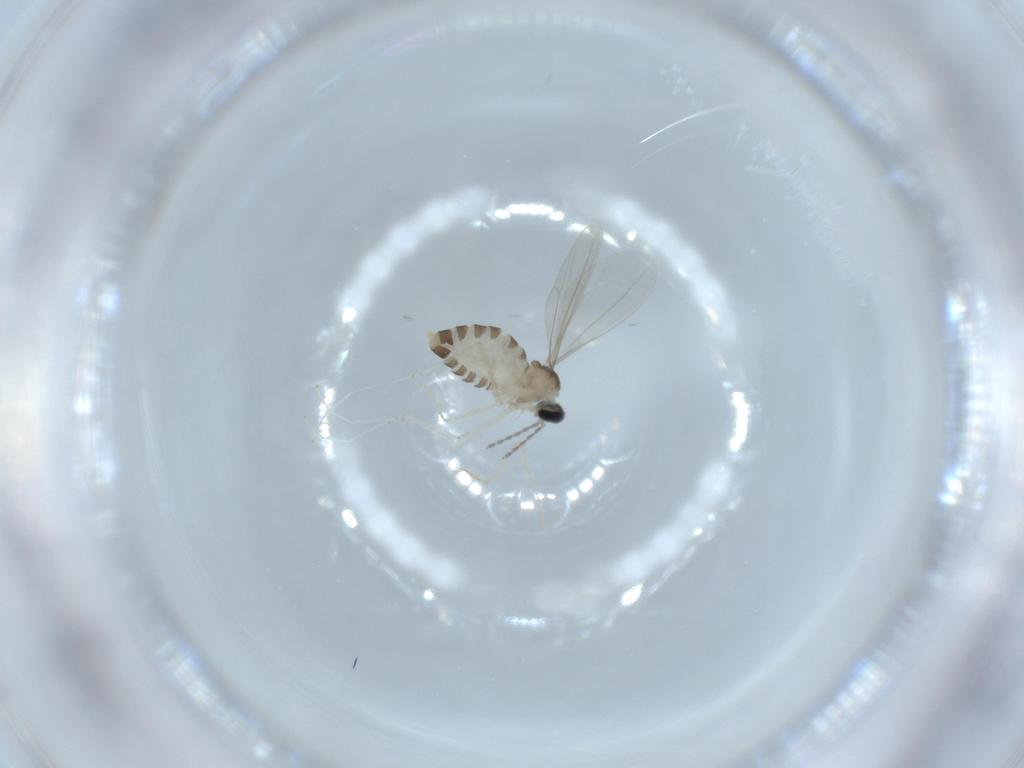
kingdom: Animalia
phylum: Arthropoda
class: Insecta
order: Diptera
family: Cecidomyiidae
